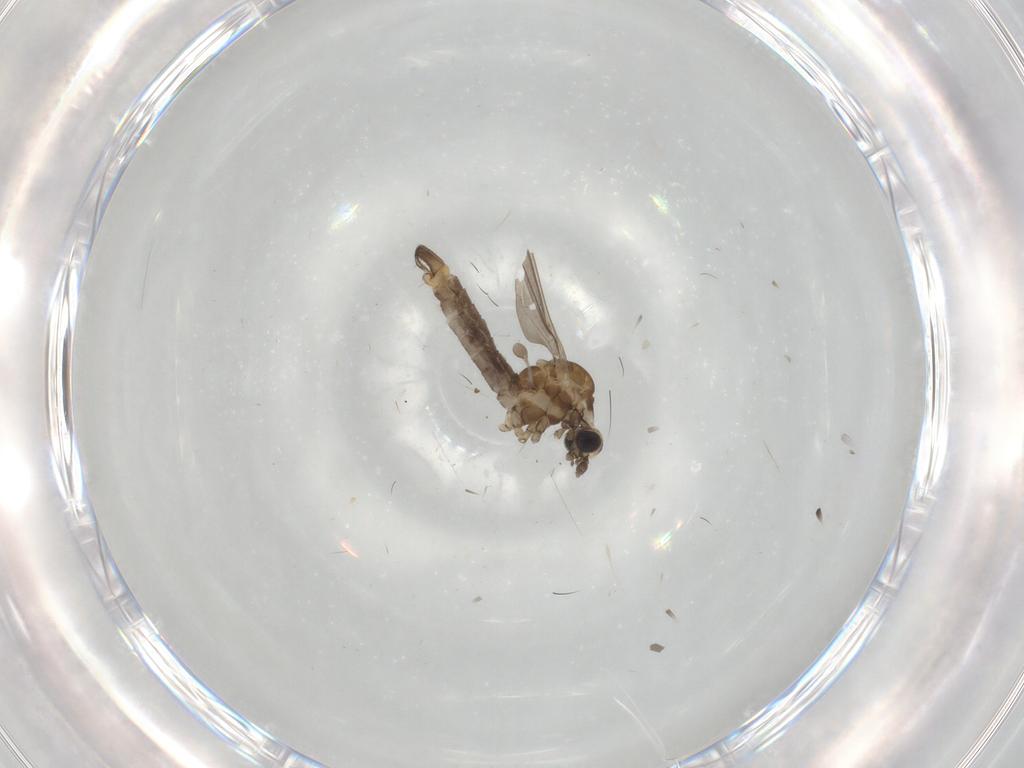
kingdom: Animalia
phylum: Arthropoda
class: Insecta
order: Diptera
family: Limoniidae
